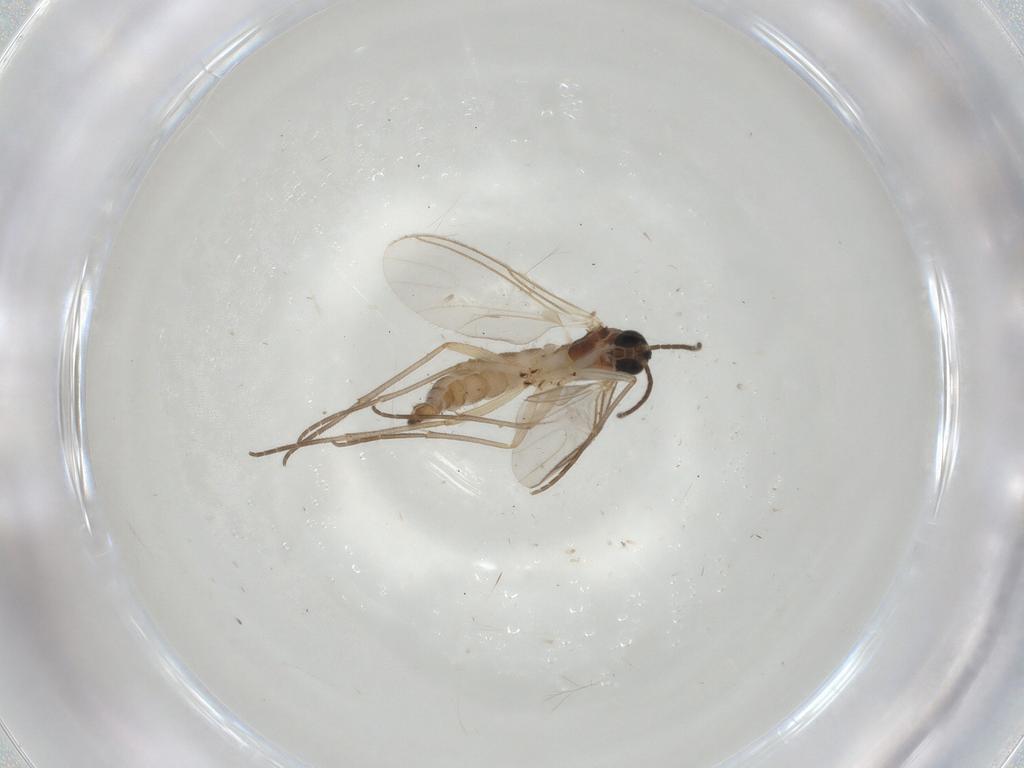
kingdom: Animalia
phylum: Arthropoda
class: Insecta
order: Diptera
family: Sciaridae
